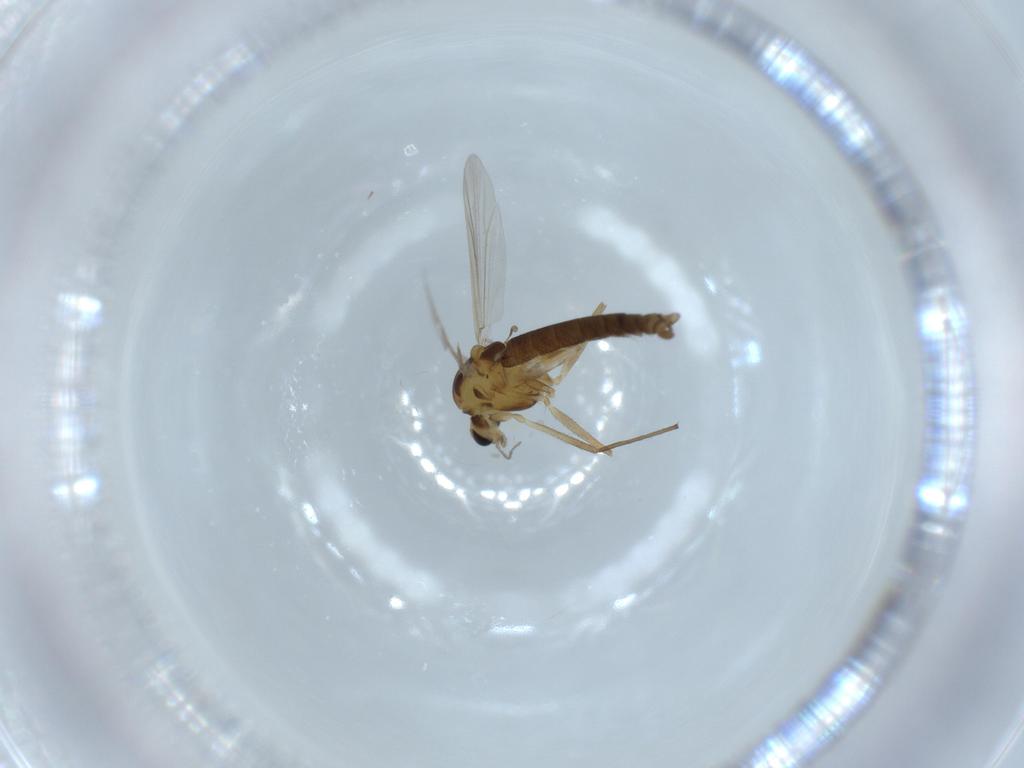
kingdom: Animalia
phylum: Arthropoda
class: Insecta
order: Diptera
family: Chironomidae
